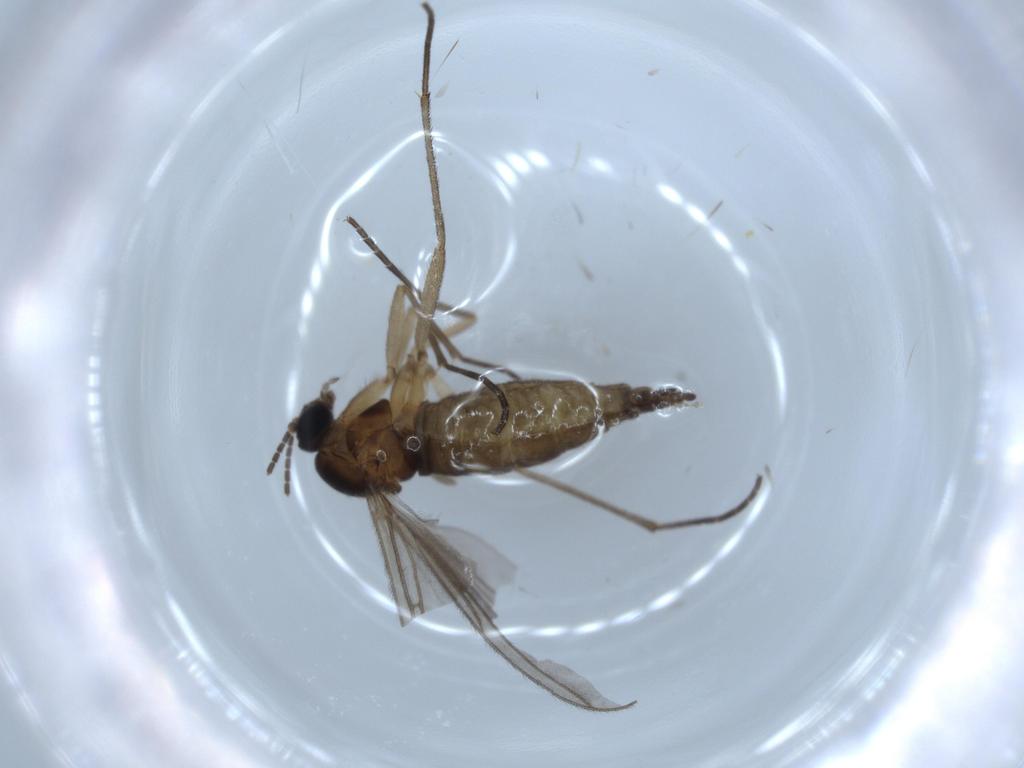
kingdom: Animalia
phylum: Arthropoda
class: Insecta
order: Diptera
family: Sciaridae
